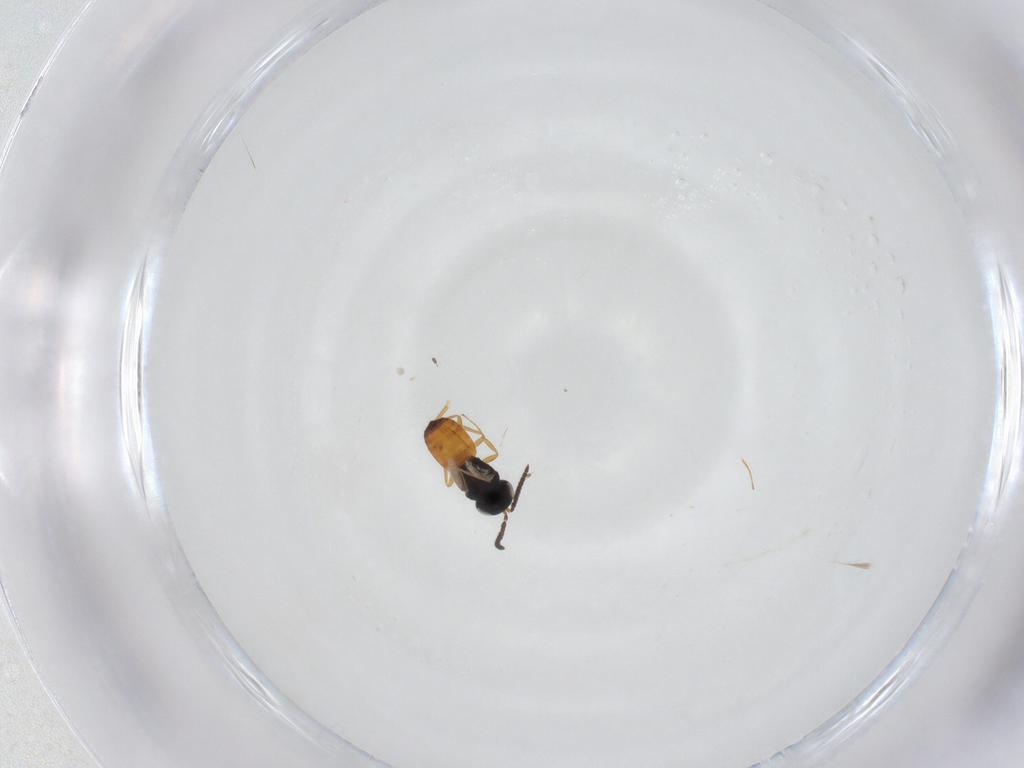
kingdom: Animalia
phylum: Arthropoda
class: Insecta
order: Hymenoptera
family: Scelionidae
